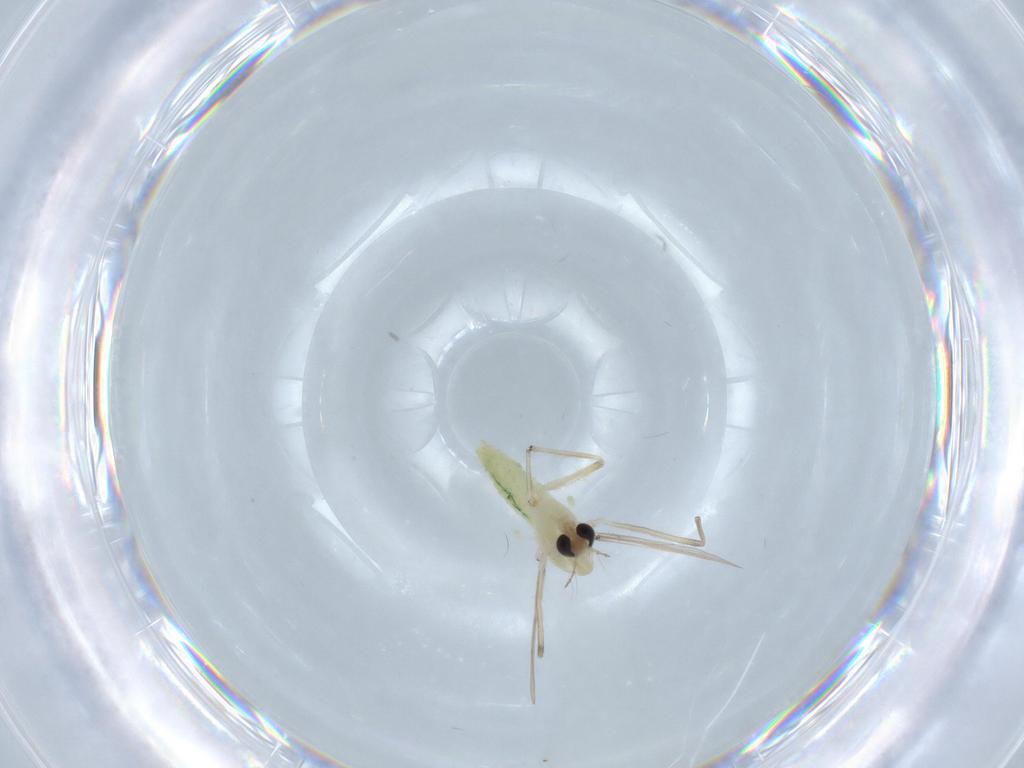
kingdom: Animalia
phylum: Arthropoda
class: Insecta
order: Diptera
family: Chironomidae
